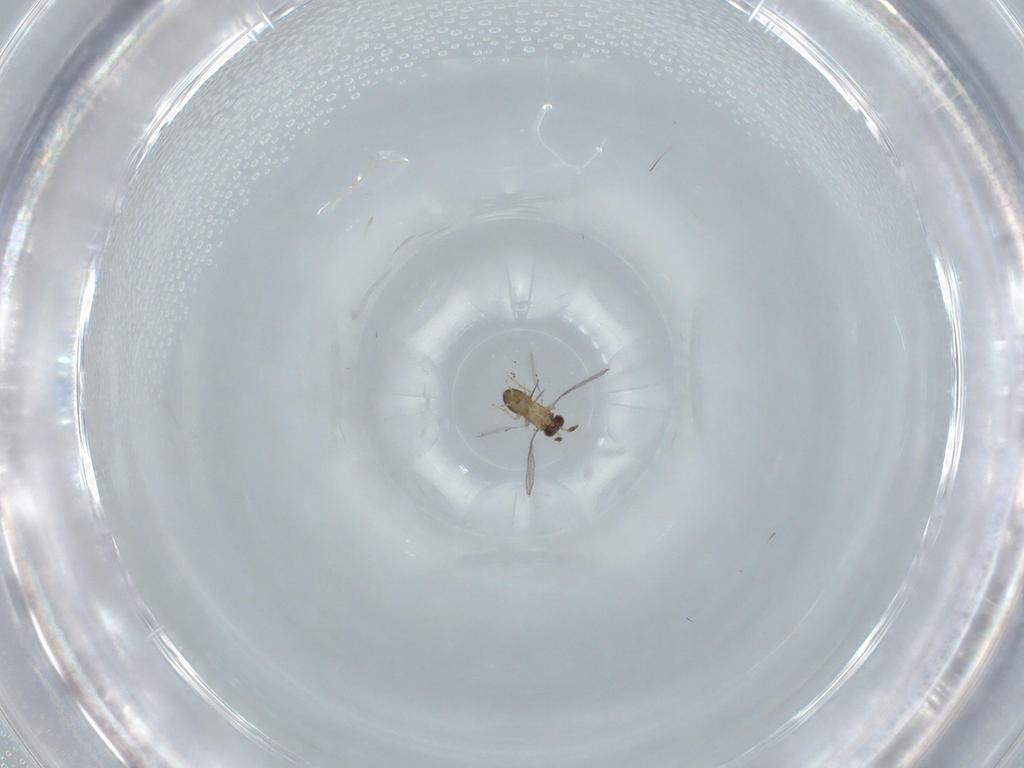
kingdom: Animalia
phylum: Arthropoda
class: Insecta
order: Hymenoptera
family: Trichogrammatidae
